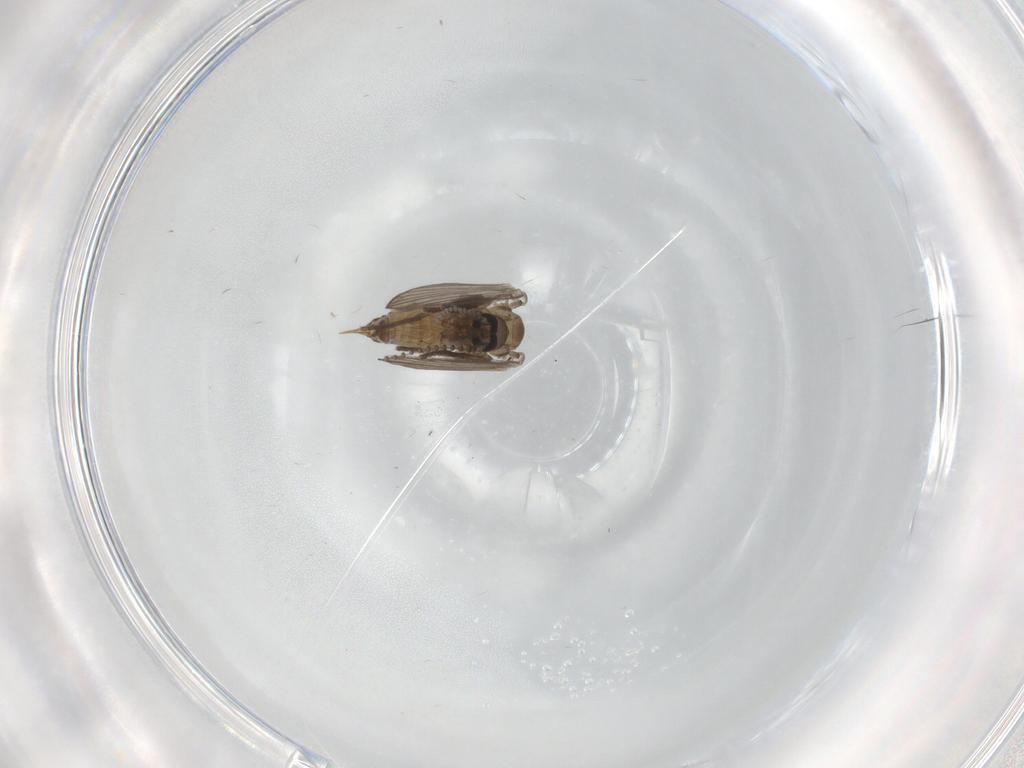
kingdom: Animalia
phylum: Arthropoda
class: Insecta
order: Diptera
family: Psychodidae
